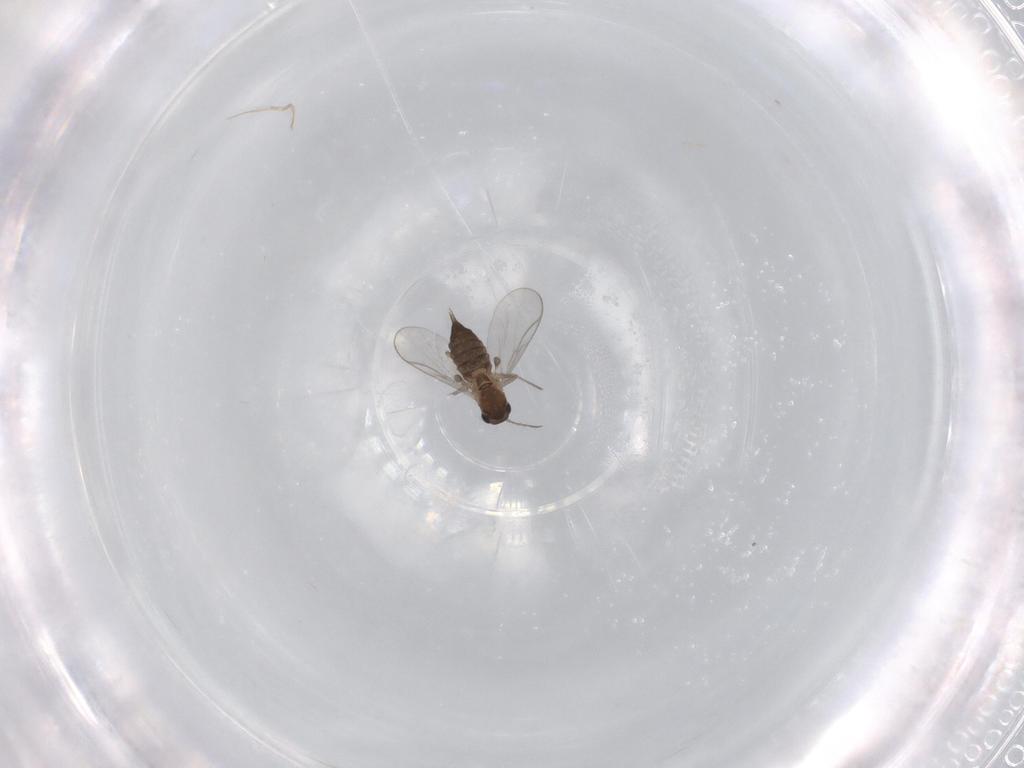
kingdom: Animalia
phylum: Arthropoda
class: Insecta
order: Diptera
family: Chironomidae
